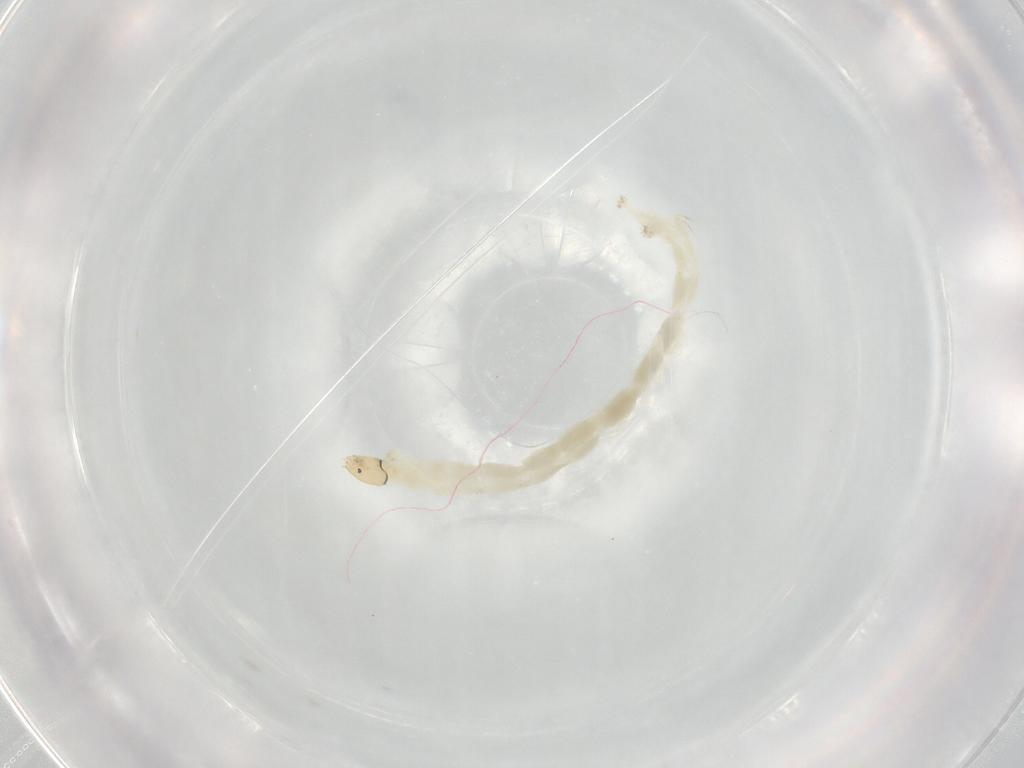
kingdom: Animalia
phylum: Arthropoda
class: Insecta
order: Diptera
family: Chironomidae
